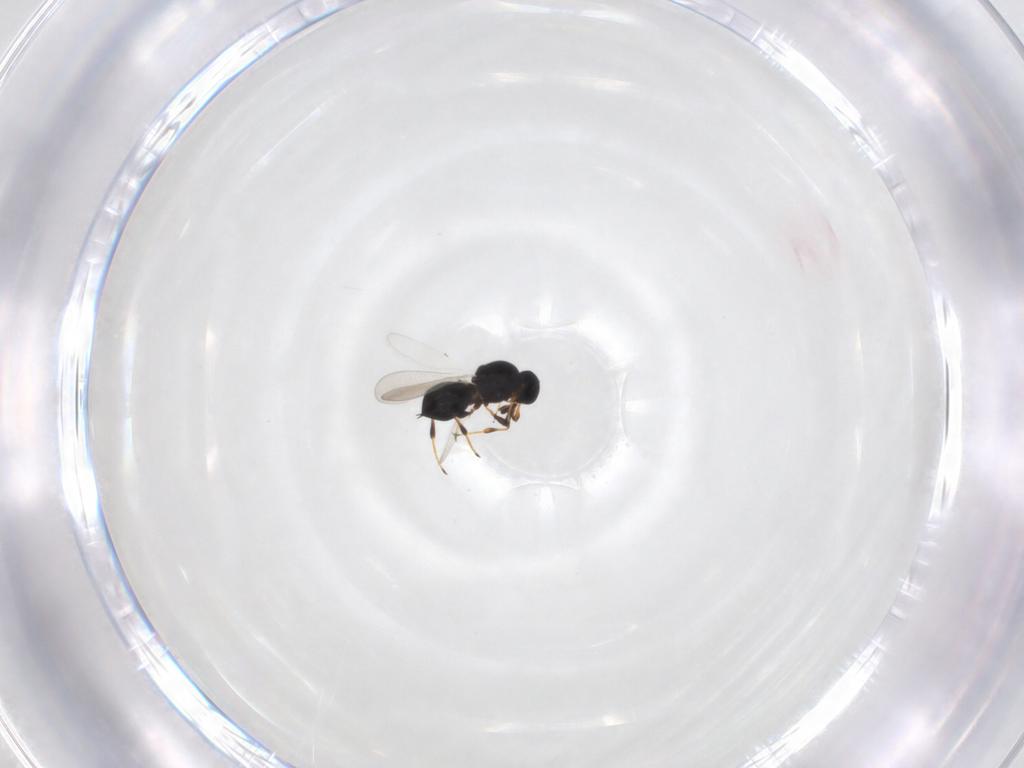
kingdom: Animalia
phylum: Arthropoda
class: Insecta
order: Hymenoptera
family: Platygastridae
